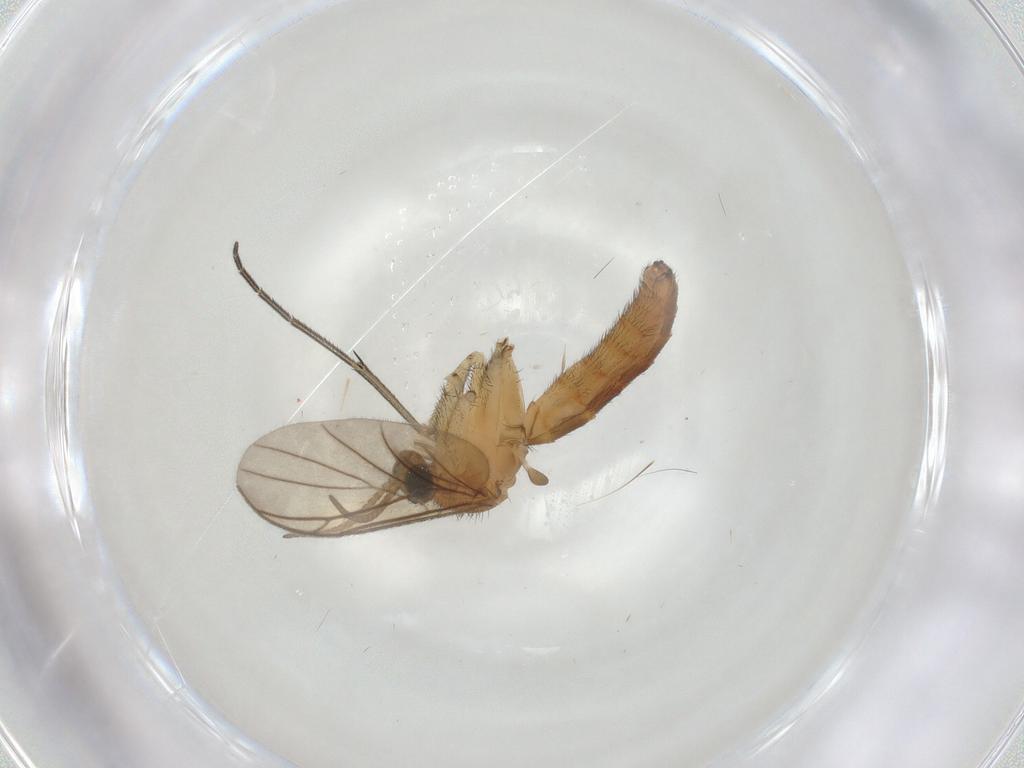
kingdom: Animalia
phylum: Arthropoda
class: Insecta
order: Diptera
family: Keroplatidae
